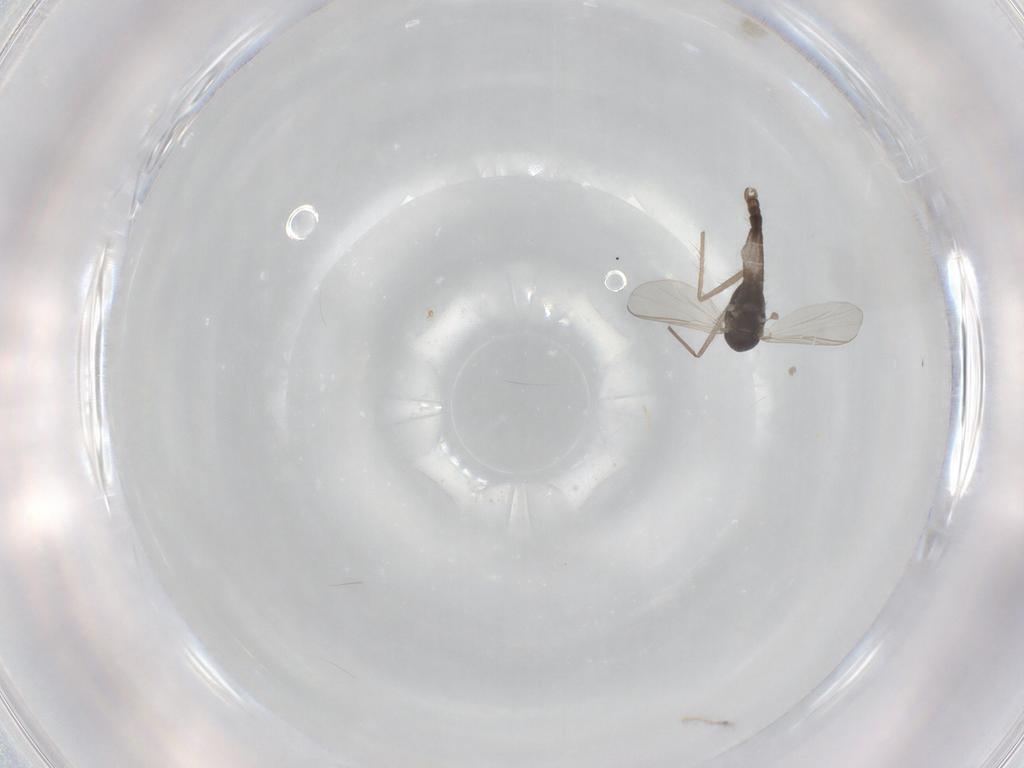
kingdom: Animalia
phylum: Arthropoda
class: Insecta
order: Diptera
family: Chironomidae
